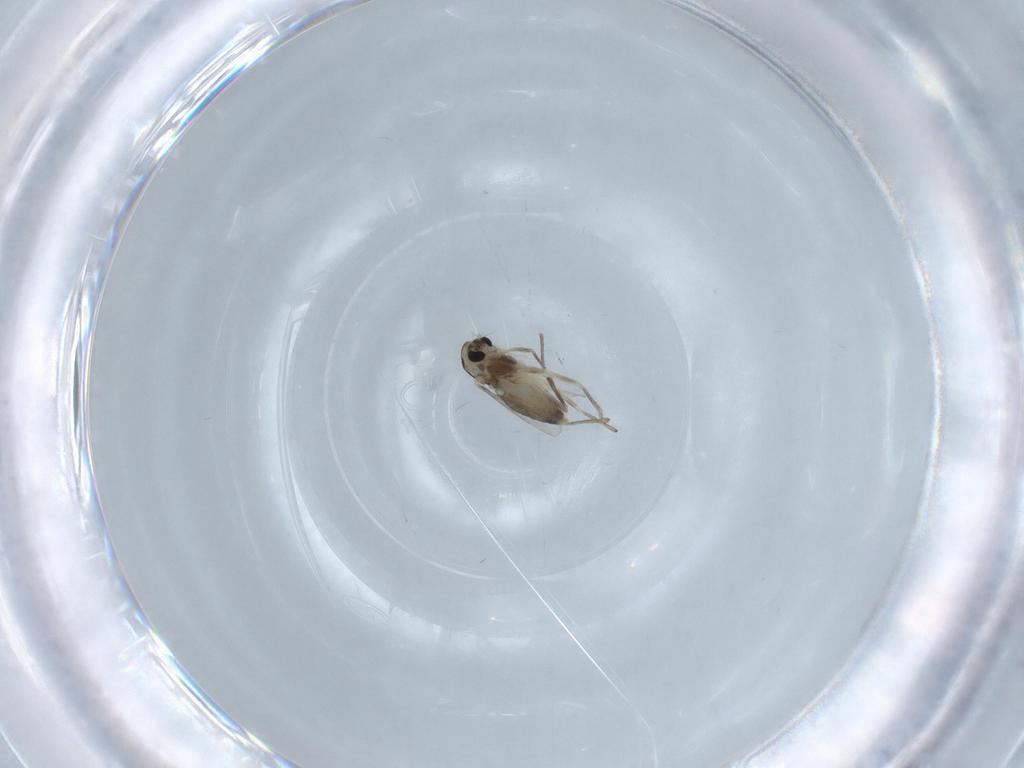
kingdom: Animalia
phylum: Arthropoda
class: Insecta
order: Diptera
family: Chironomidae
